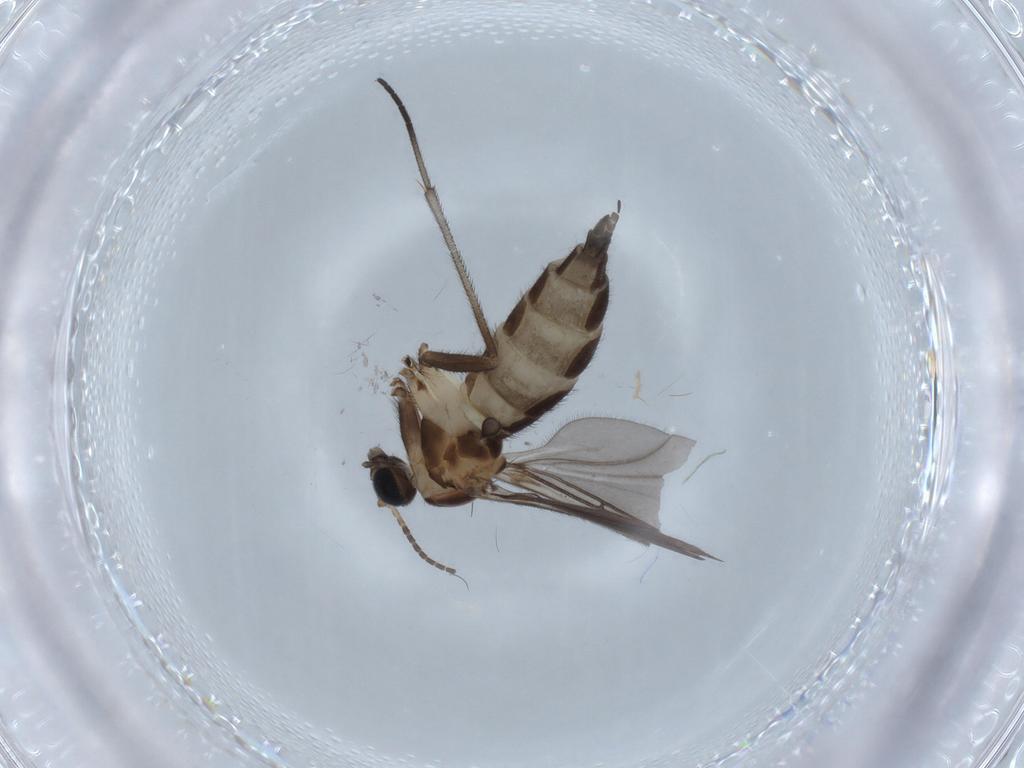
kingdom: Animalia
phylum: Arthropoda
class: Insecta
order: Diptera
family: Sciaridae
